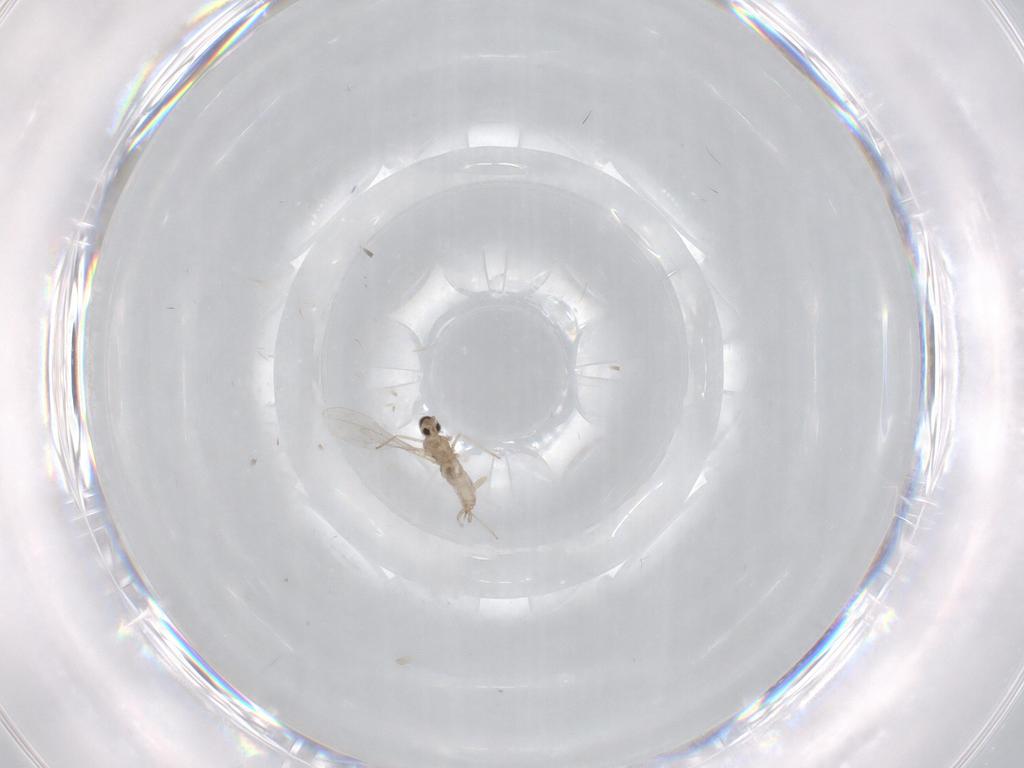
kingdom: Animalia
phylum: Arthropoda
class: Insecta
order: Diptera
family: Cecidomyiidae
